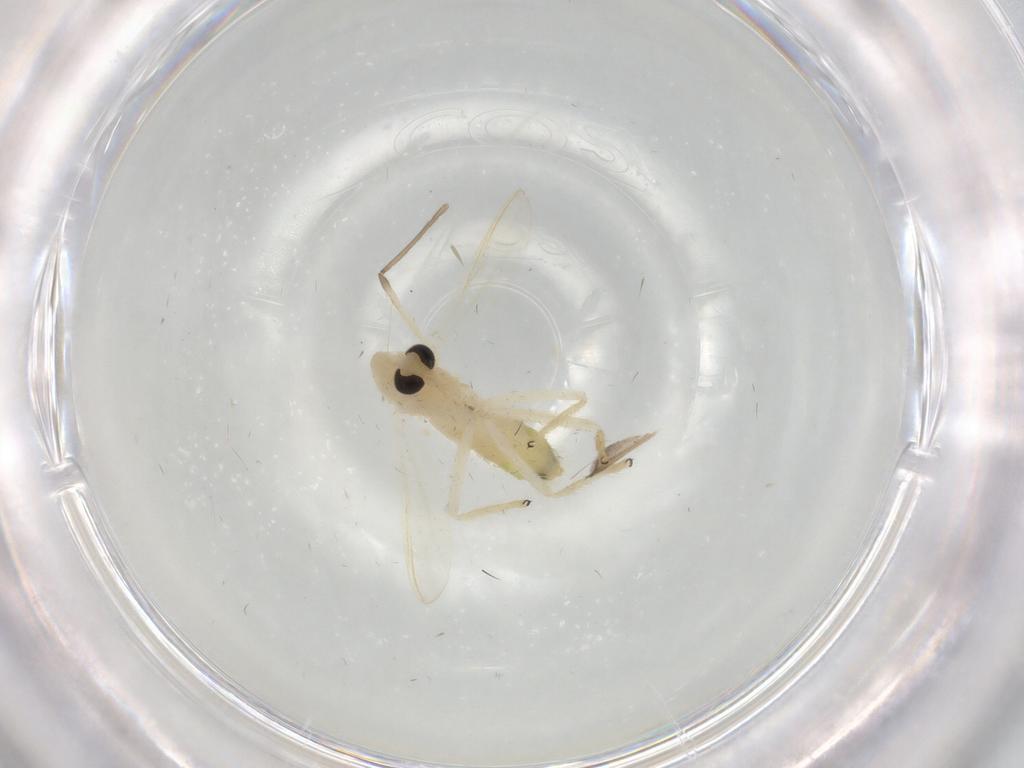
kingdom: Animalia
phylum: Arthropoda
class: Insecta
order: Diptera
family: Chironomidae
